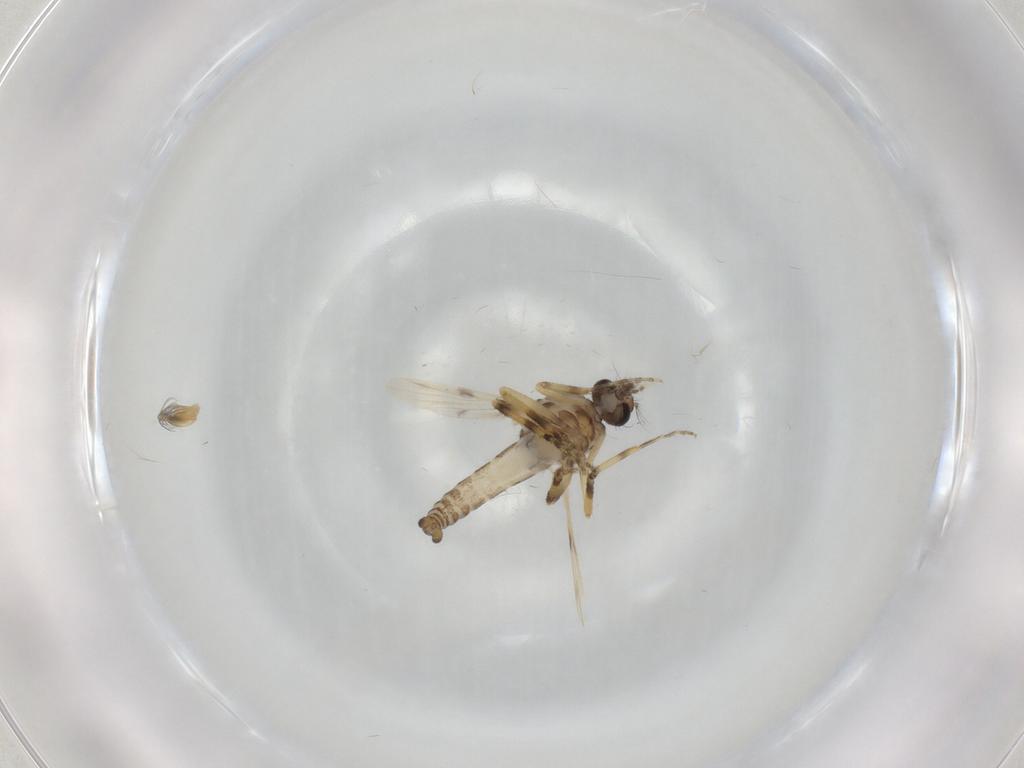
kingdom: Animalia
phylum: Arthropoda
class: Insecta
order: Diptera
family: Ceratopogonidae
